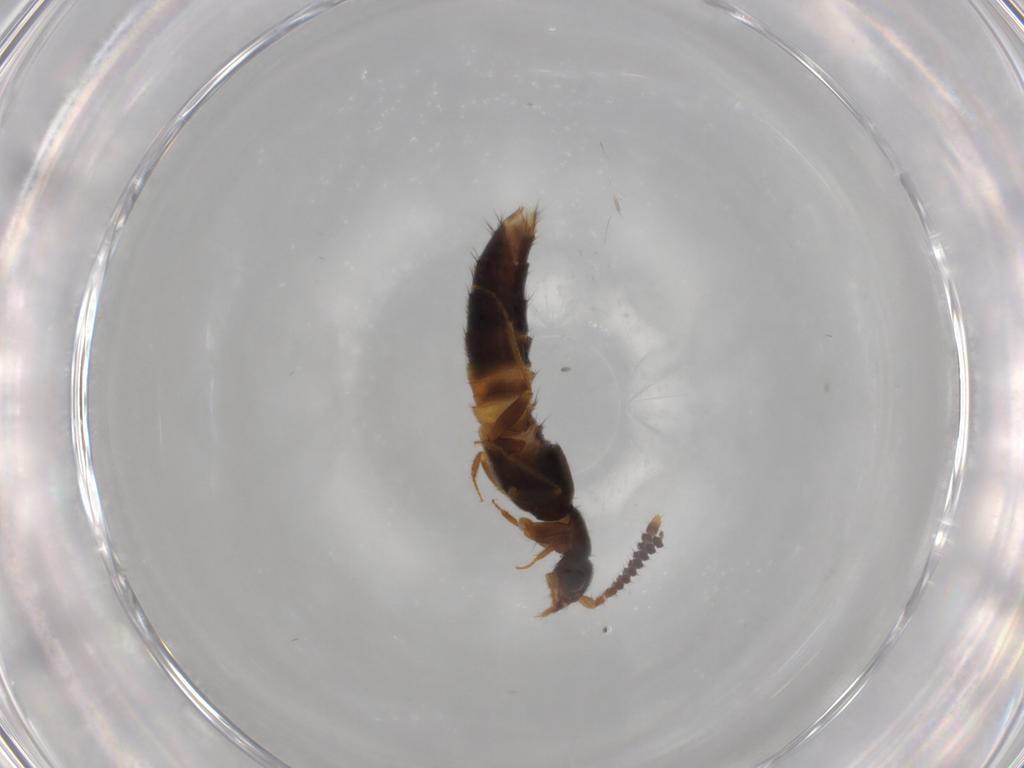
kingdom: Animalia
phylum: Arthropoda
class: Insecta
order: Coleoptera
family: Staphylinidae
